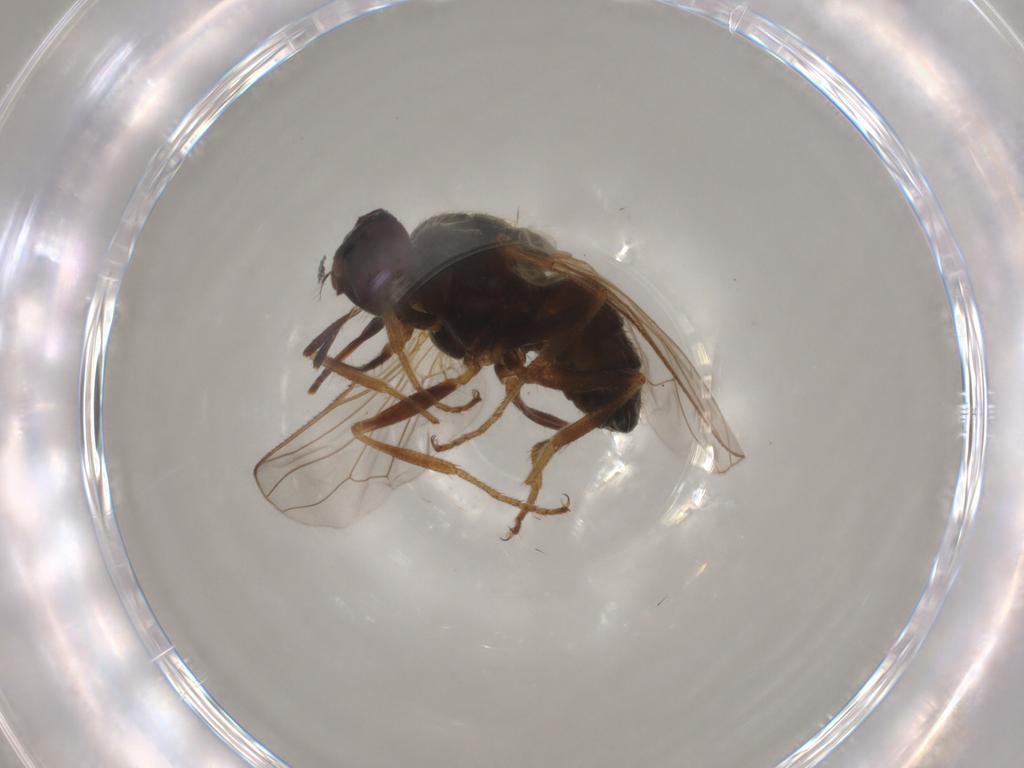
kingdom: Animalia
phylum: Arthropoda
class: Insecta
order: Diptera
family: Muscidae
